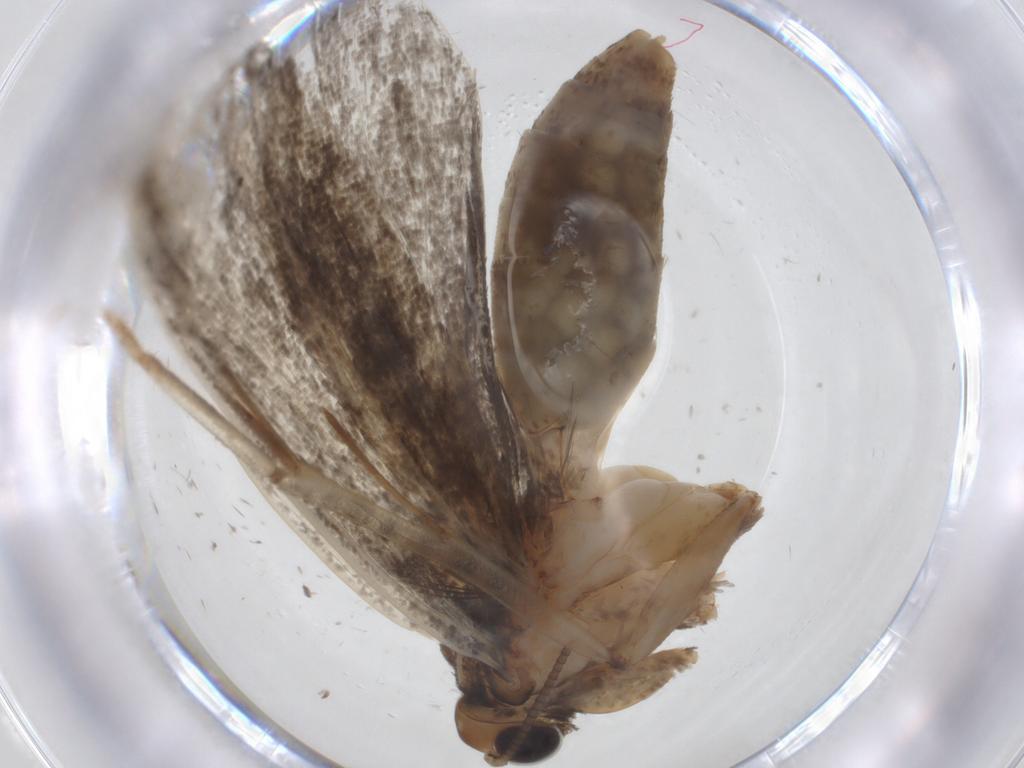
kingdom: Animalia
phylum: Arthropoda
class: Insecta
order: Lepidoptera
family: Tineidae
